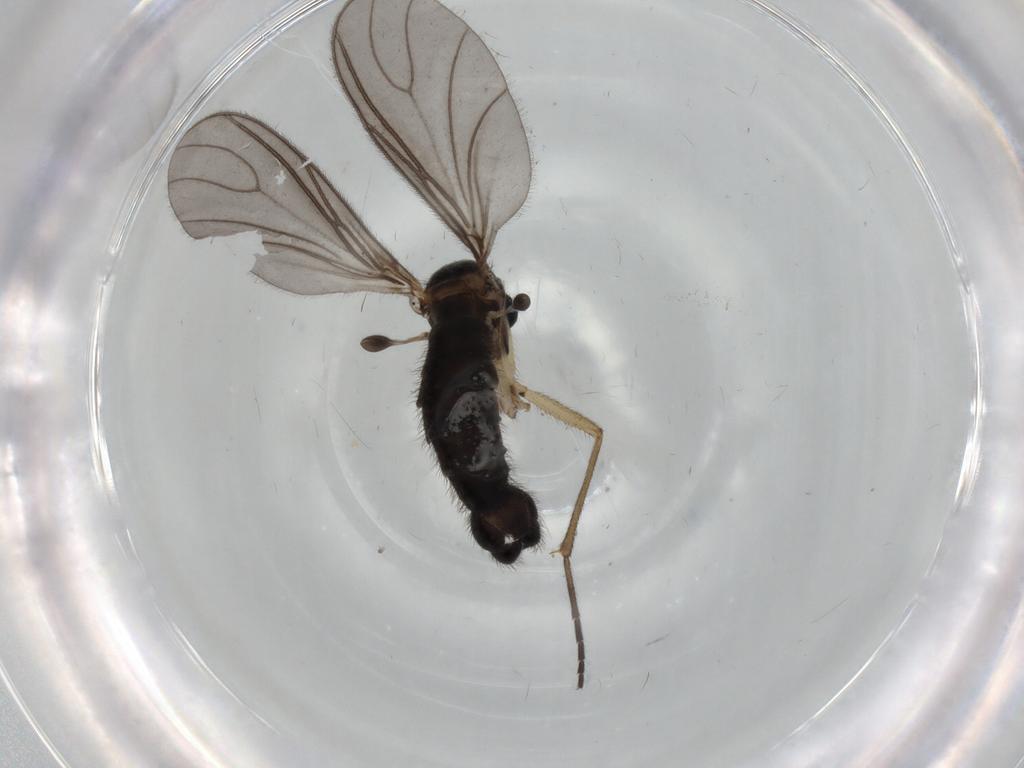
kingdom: Animalia
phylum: Arthropoda
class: Insecta
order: Diptera
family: Sciaridae
